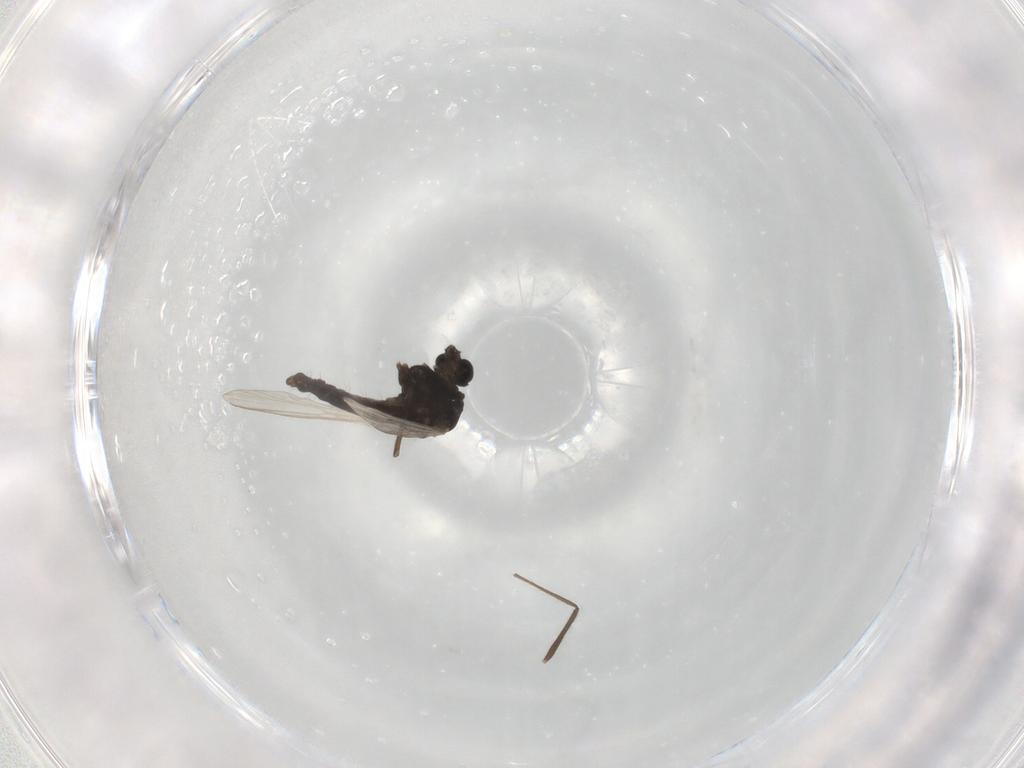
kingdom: Animalia
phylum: Arthropoda
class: Insecta
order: Diptera
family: Chironomidae
